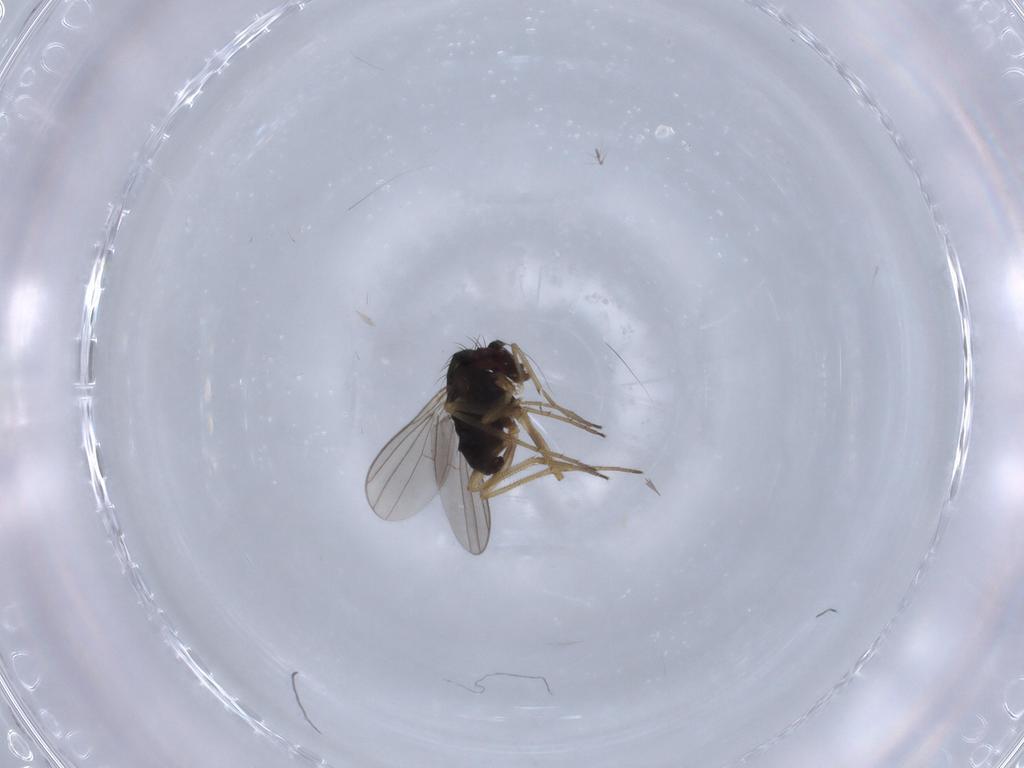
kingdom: Animalia
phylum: Arthropoda
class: Insecta
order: Diptera
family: Dolichopodidae
